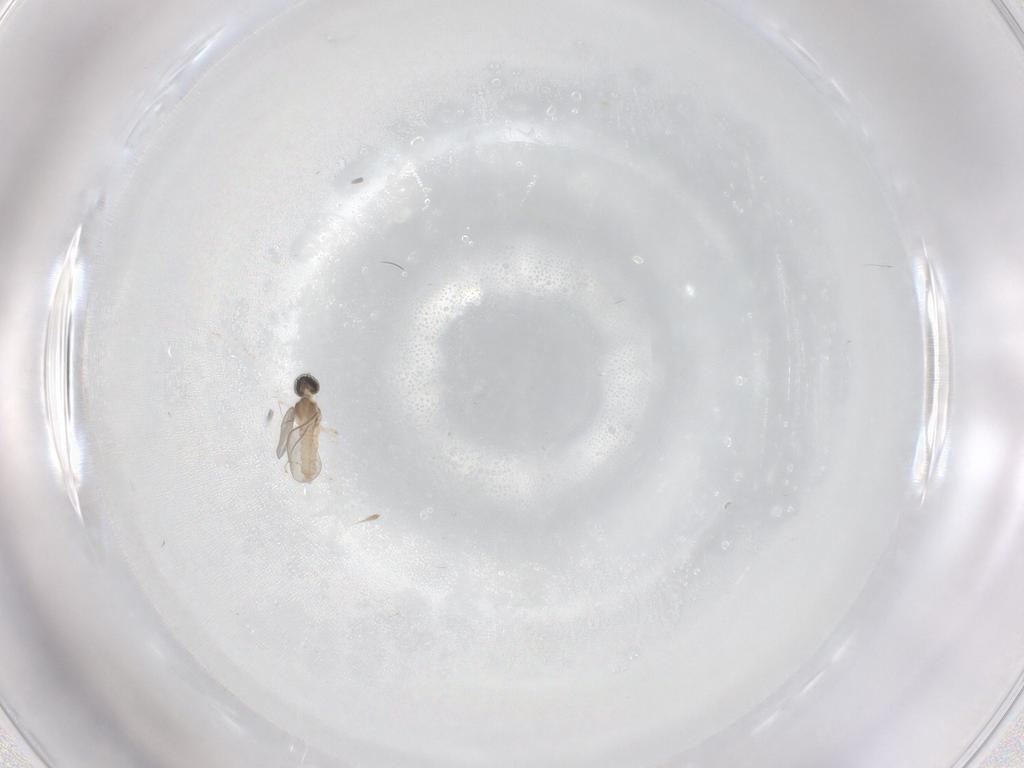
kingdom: Animalia
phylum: Arthropoda
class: Insecta
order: Diptera
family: Cecidomyiidae
